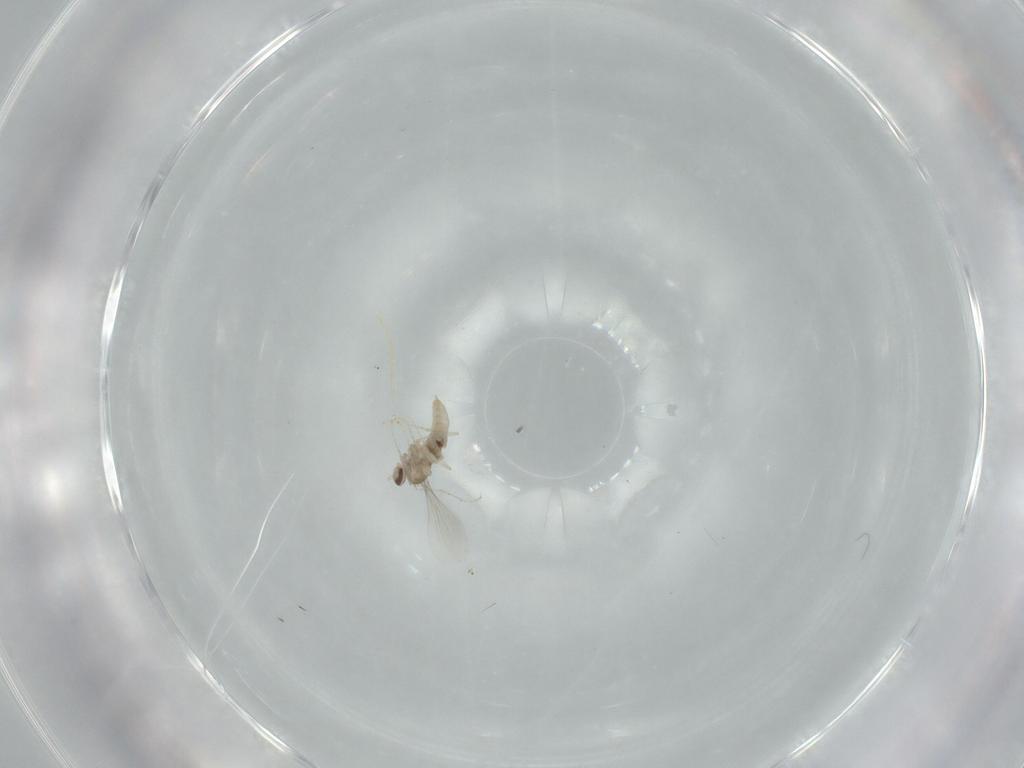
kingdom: Animalia
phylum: Arthropoda
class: Insecta
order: Diptera
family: Cecidomyiidae
